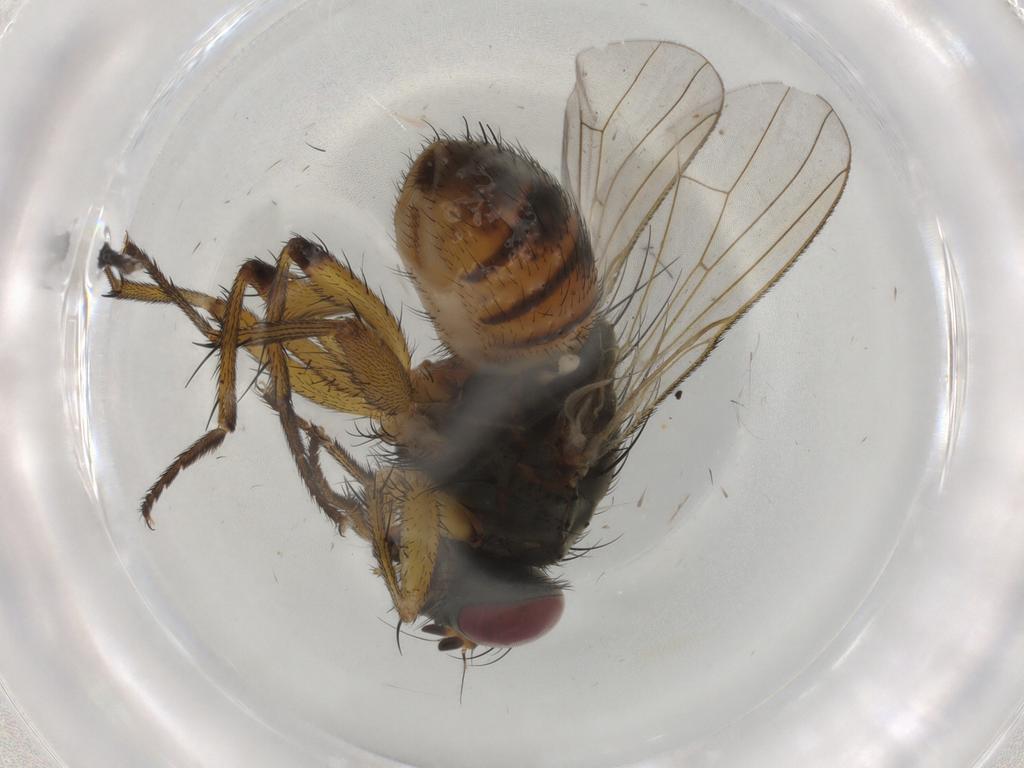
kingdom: Animalia
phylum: Arthropoda
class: Insecta
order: Diptera
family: Muscidae
